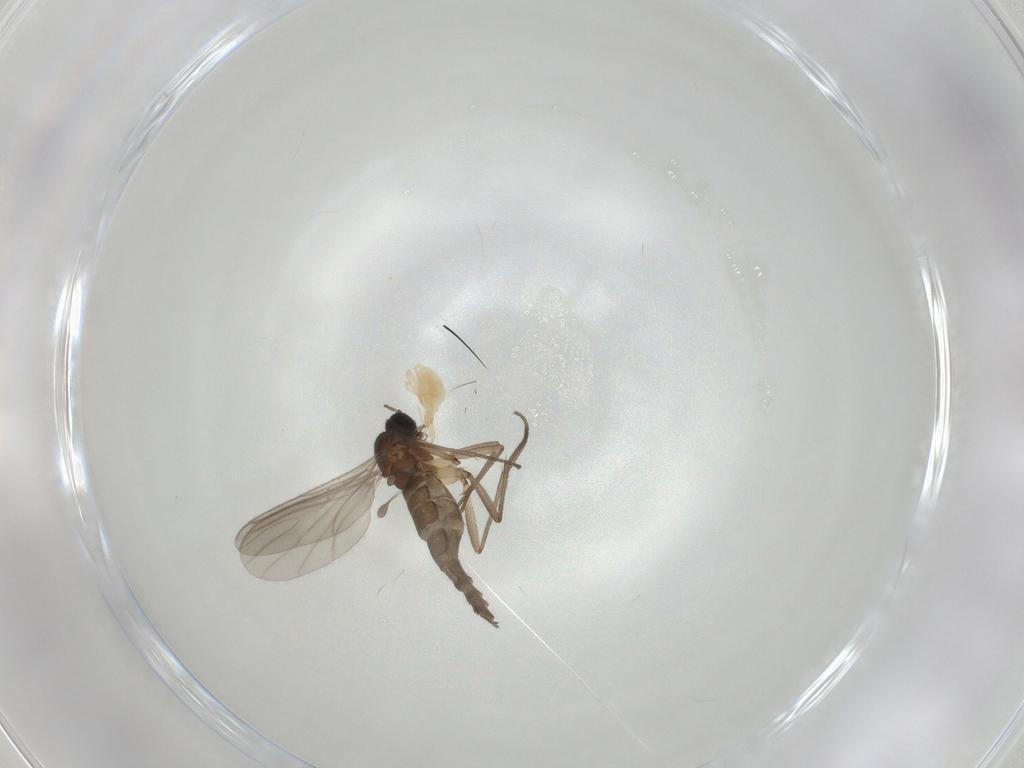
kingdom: Animalia
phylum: Arthropoda
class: Insecta
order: Diptera
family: Sciaridae
